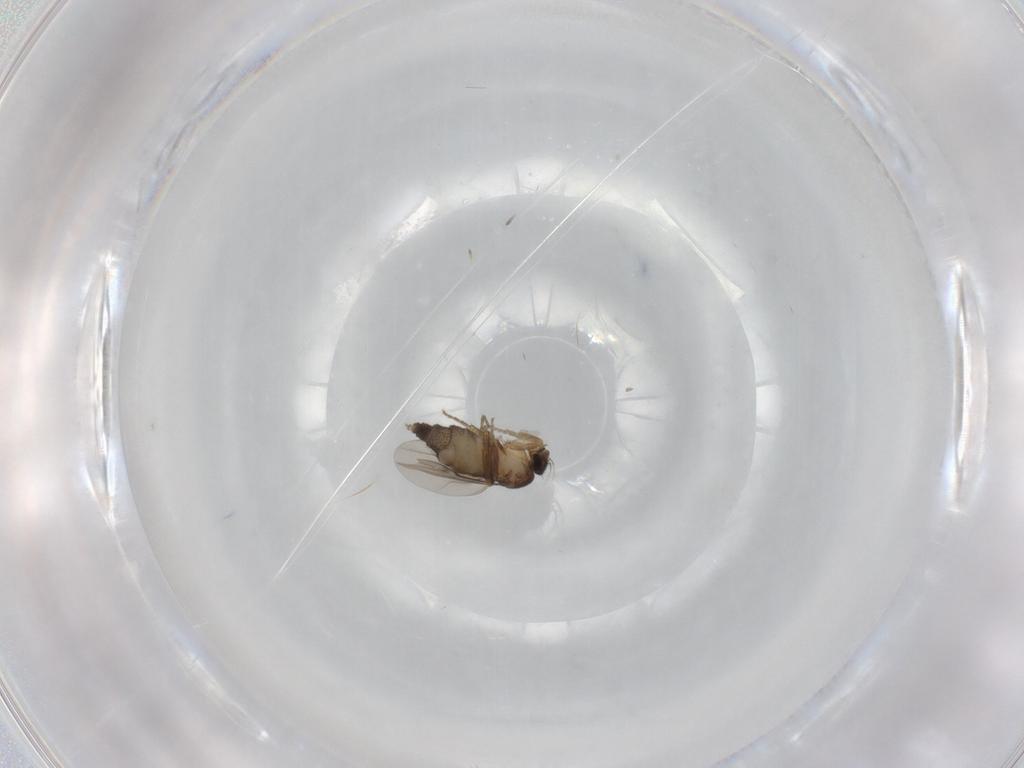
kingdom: Animalia
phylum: Arthropoda
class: Insecta
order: Diptera
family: Phoridae
